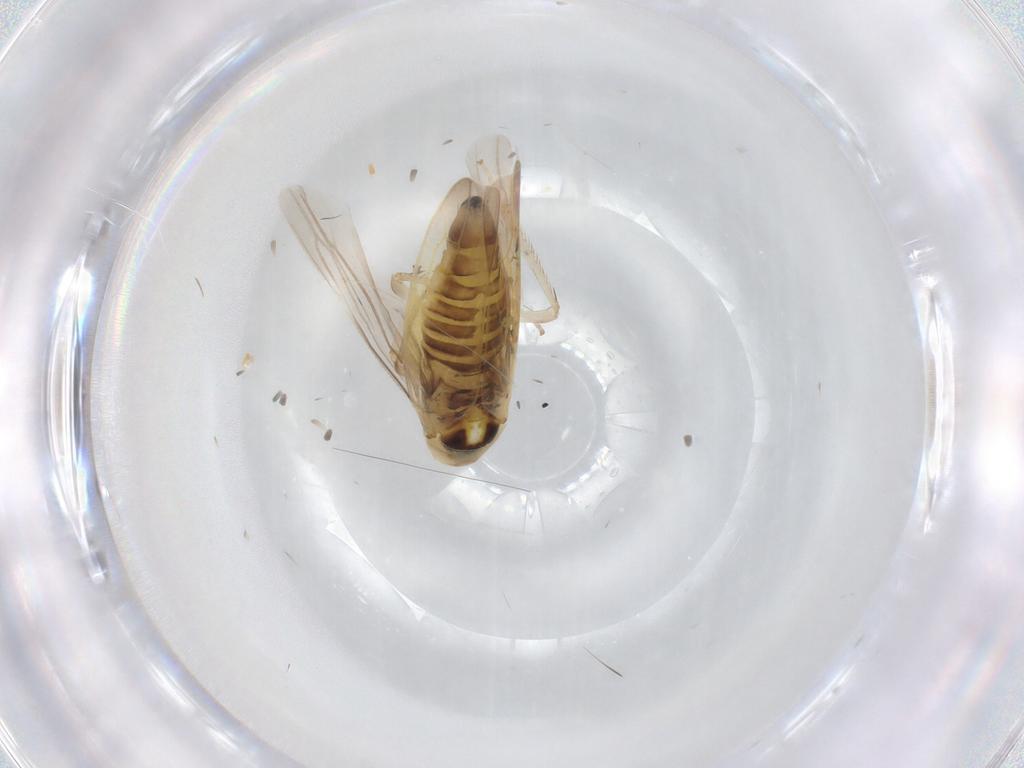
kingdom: Animalia
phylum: Arthropoda
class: Insecta
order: Hemiptera
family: Cicadellidae
